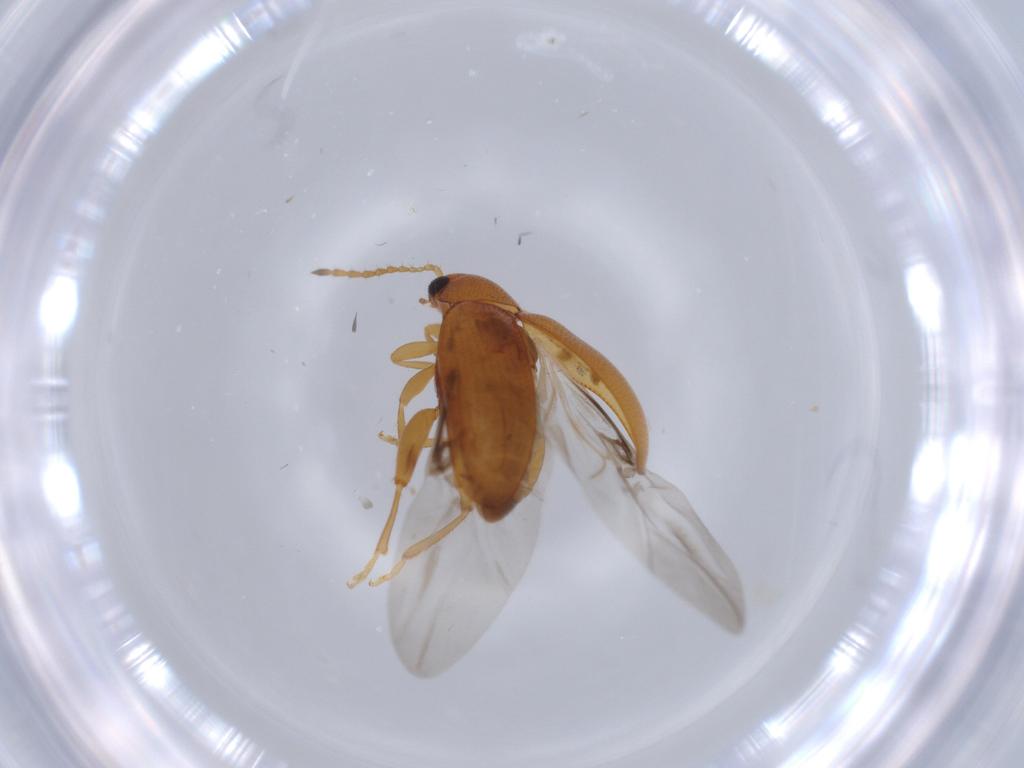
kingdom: Animalia
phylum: Arthropoda
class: Insecta
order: Coleoptera
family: Chrysomelidae
